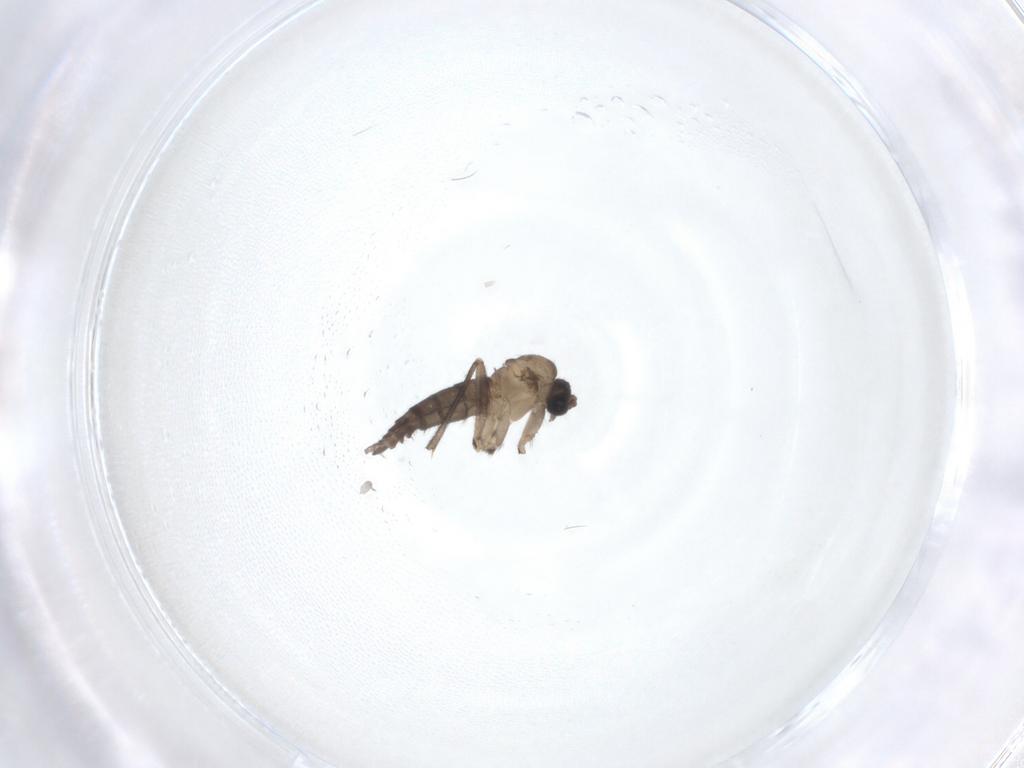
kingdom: Animalia
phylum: Arthropoda
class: Insecta
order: Diptera
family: Sciaridae
